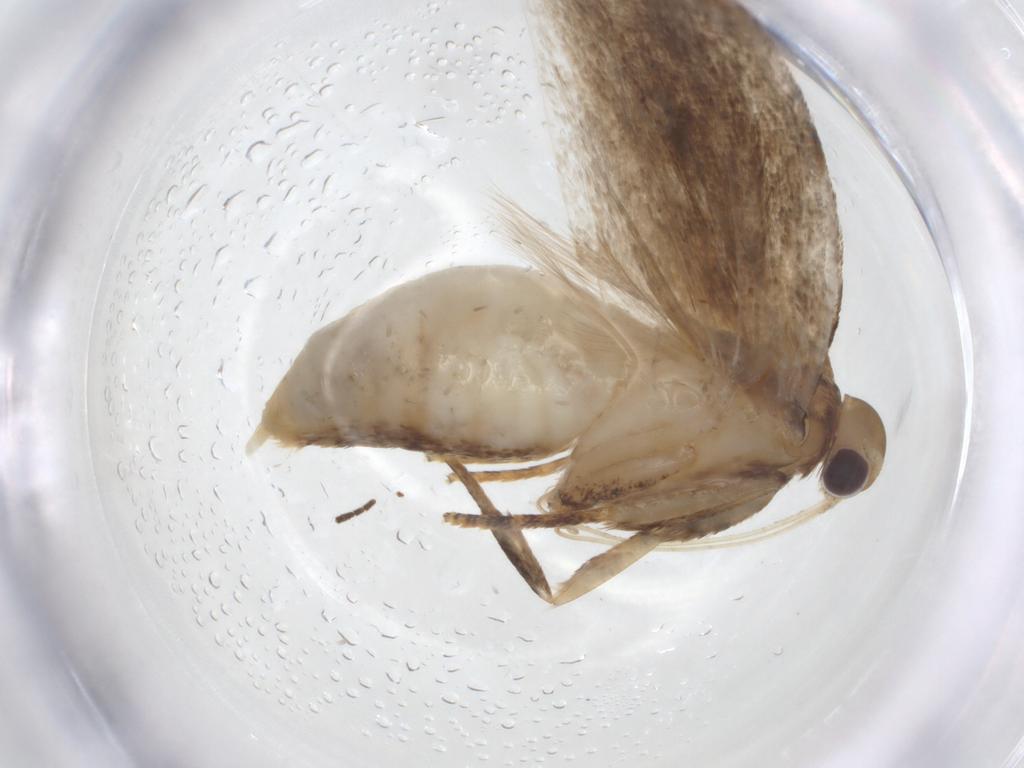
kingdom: Animalia
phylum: Arthropoda
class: Insecta
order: Lepidoptera
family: Depressariidae
